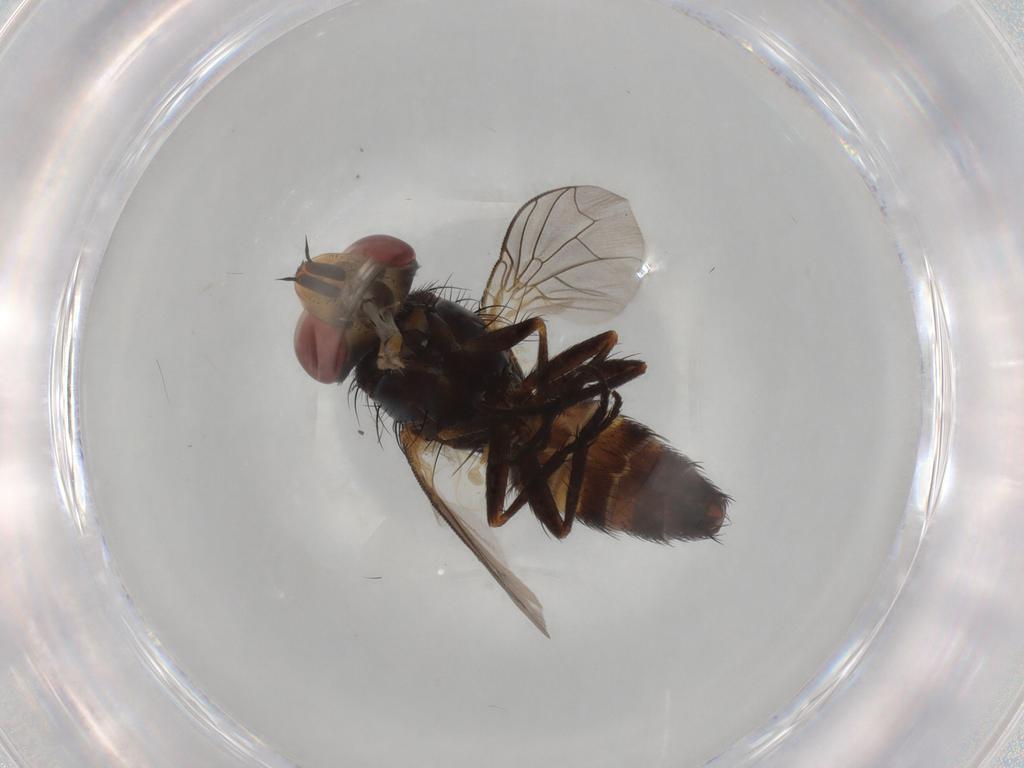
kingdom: Animalia
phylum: Arthropoda
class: Insecta
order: Diptera
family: Sarcophagidae
